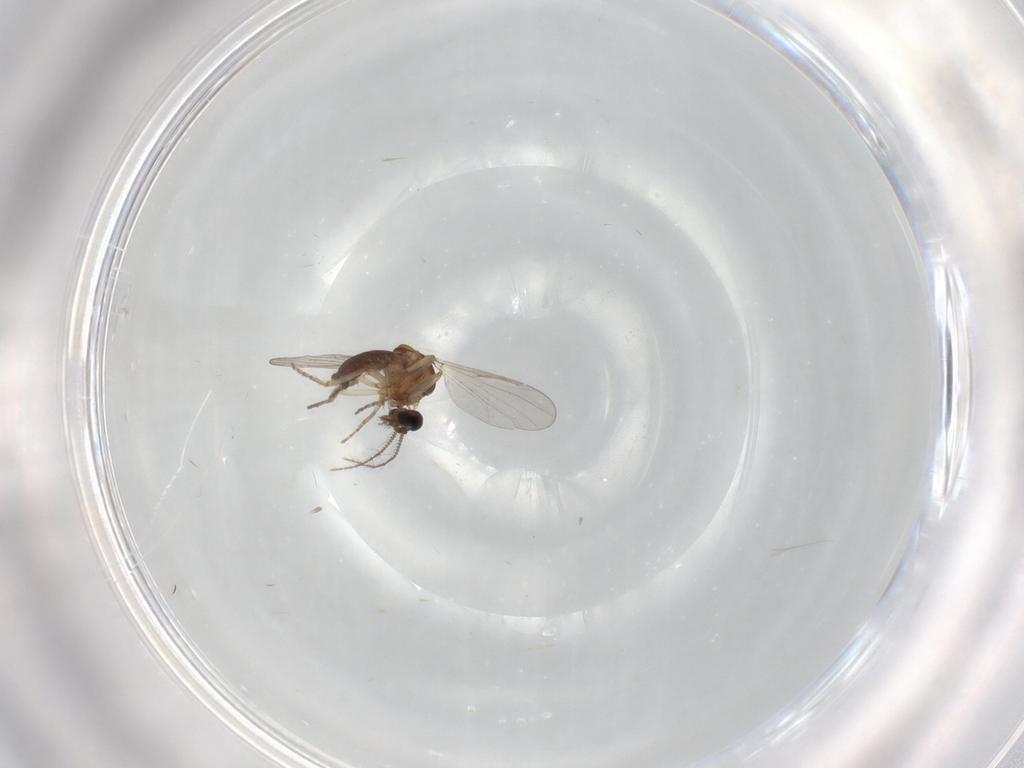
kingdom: Animalia
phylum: Arthropoda
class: Insecta
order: Diptera
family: Ceratopogonidae
